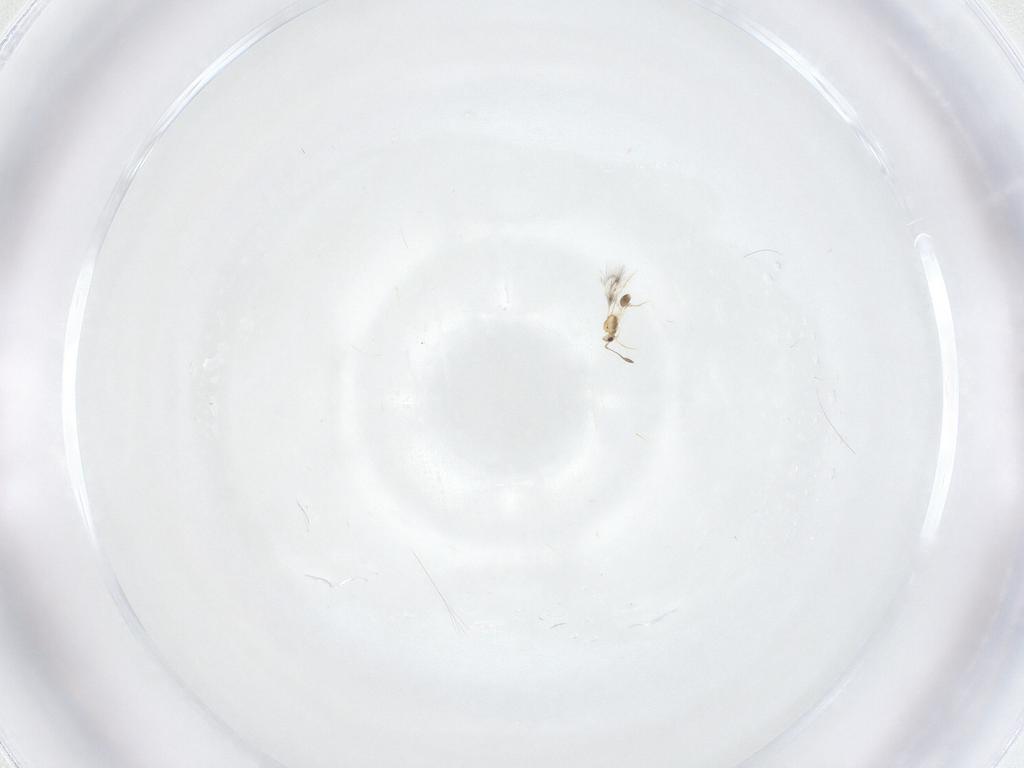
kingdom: Animalia
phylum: Arthropoda
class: Insecta
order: Hymenoptera
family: Mymarommatidae
